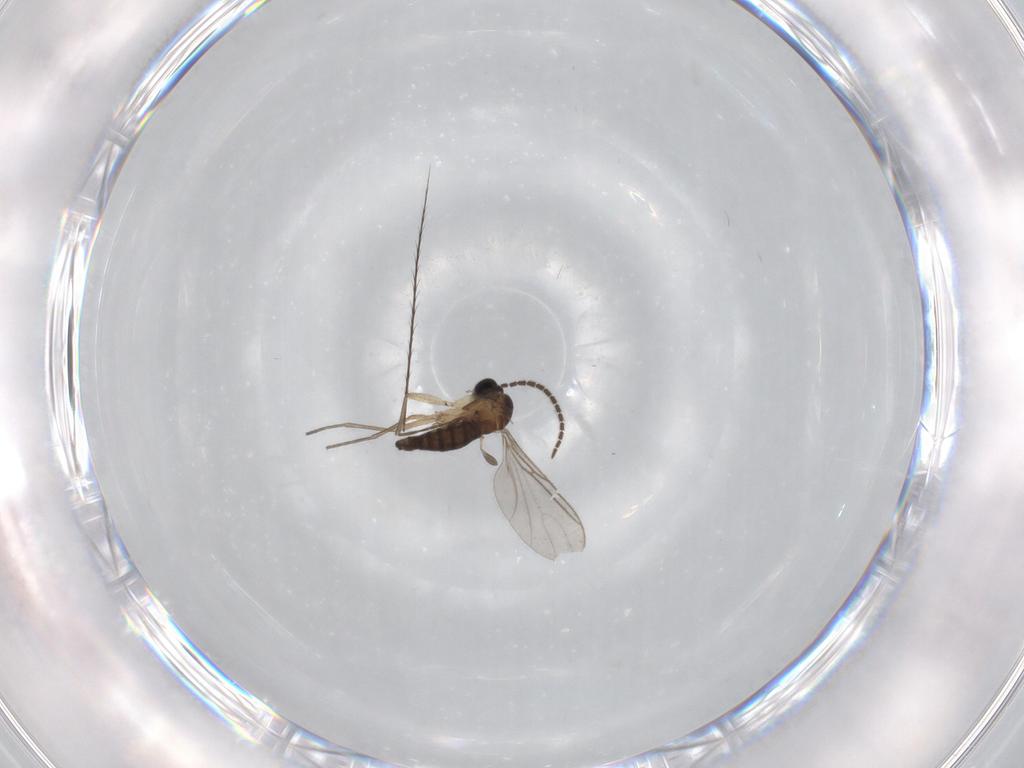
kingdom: Animalia
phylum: Arthropoda
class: Insecta
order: Diptera
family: Sciaridae
